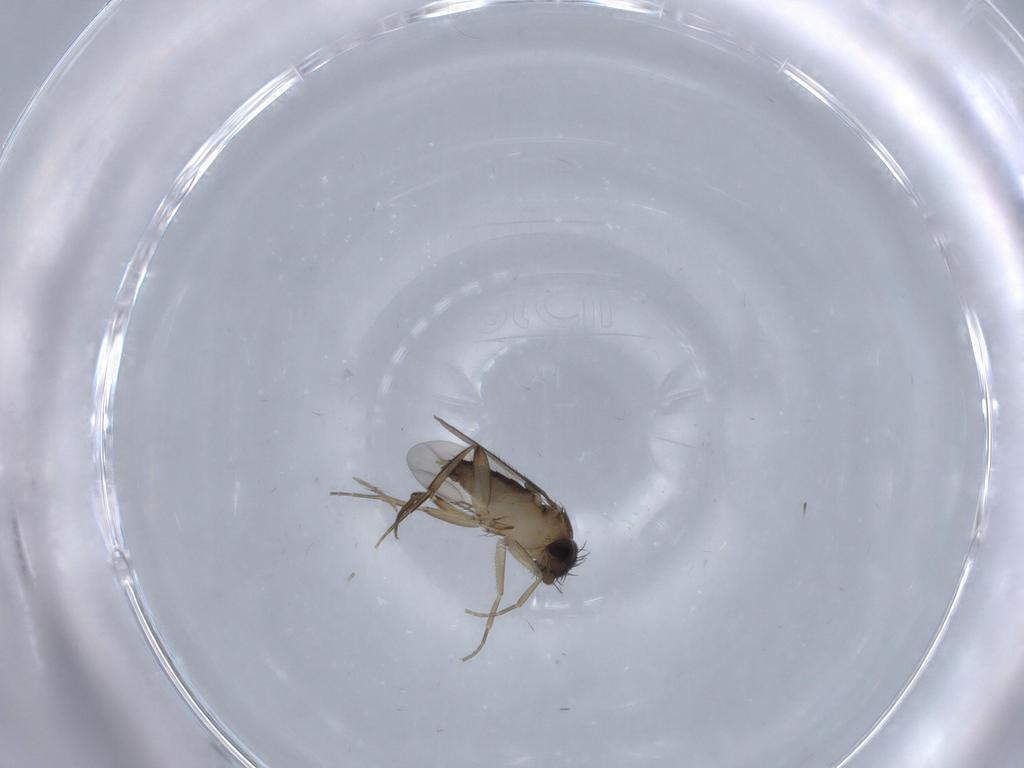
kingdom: Animalia
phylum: Arthropoda
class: Insecta
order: Diptera
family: Phoridae
